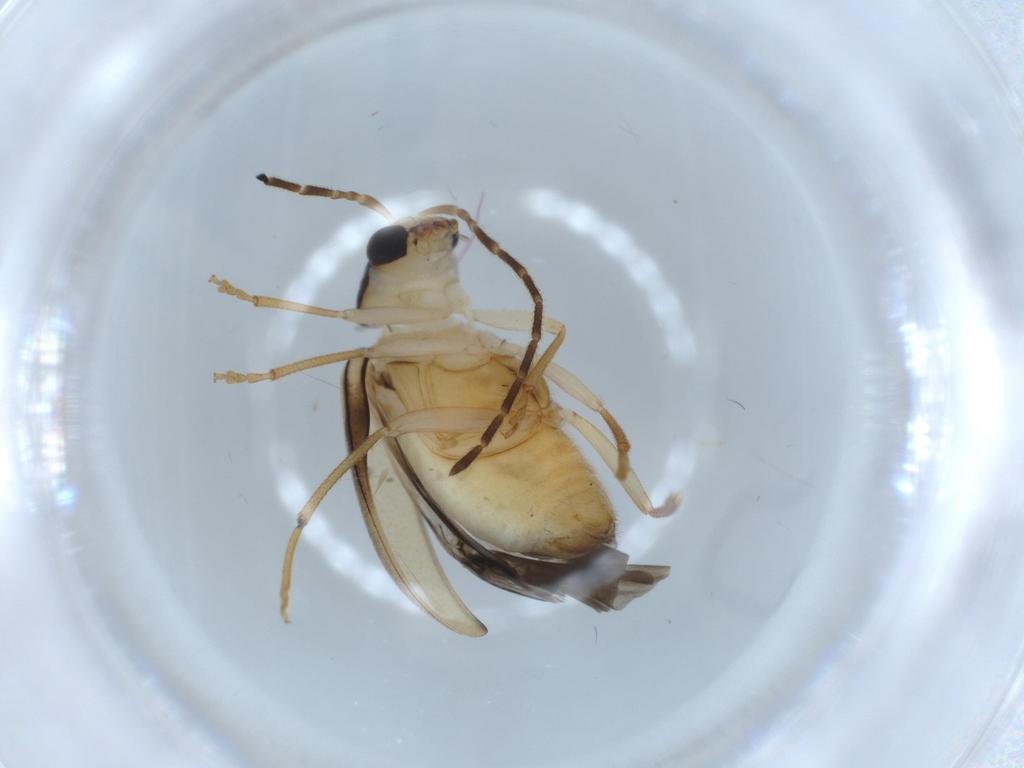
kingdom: Animalia
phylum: Arthropoda
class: Insecta
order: Coleoptera
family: Chrysomelidae
